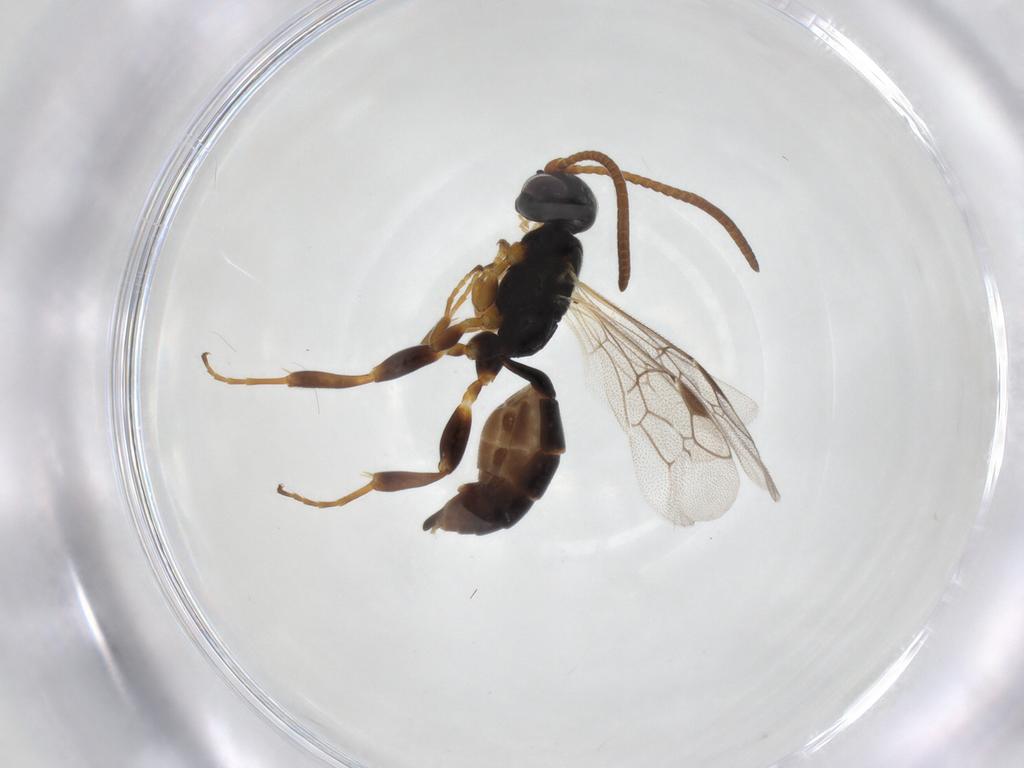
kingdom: Animalia
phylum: Arthropoda
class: Insecta
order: Hymenoptera
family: Ichneumonidae
